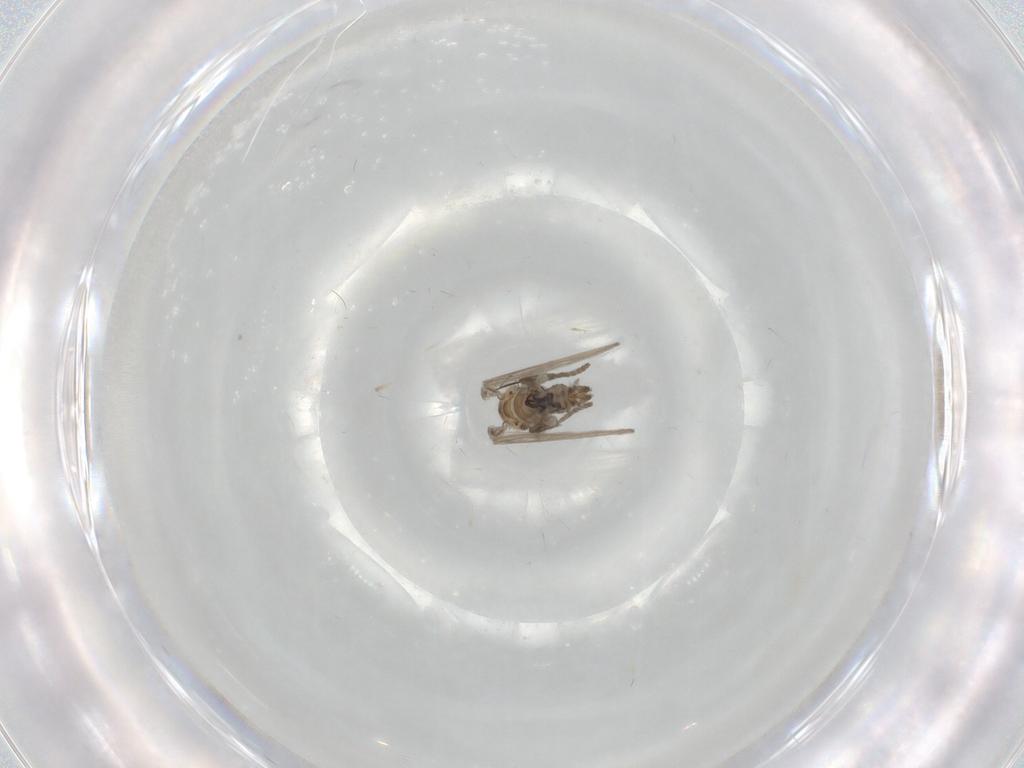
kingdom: Animalia
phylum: Arthropoda
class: Insecta
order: Diptera
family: Psychodidae
